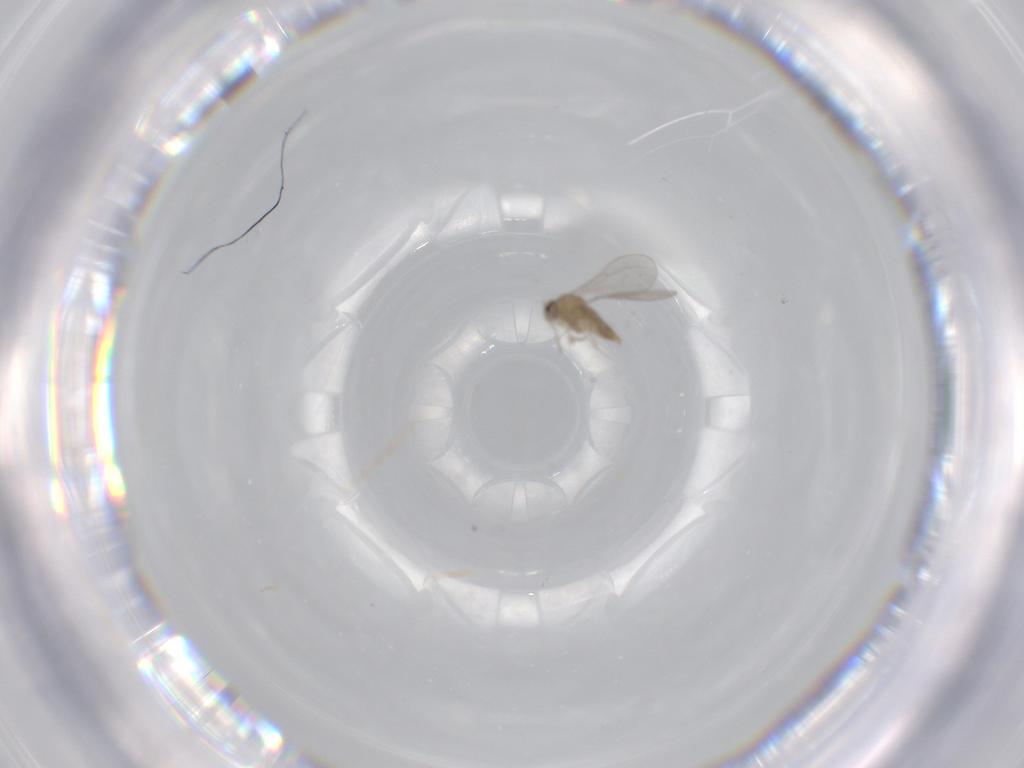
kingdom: Animalia
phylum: Arthropoda
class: Insecta
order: Diptera
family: Cecidomyiidae
